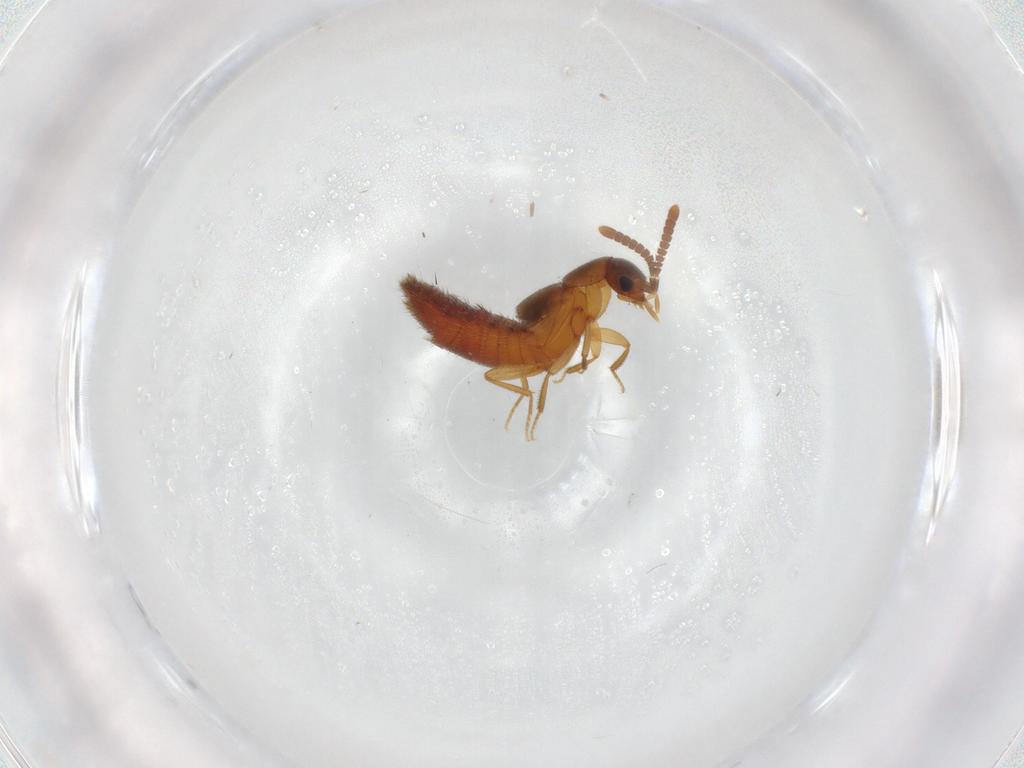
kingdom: Animalia
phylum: Arthropoda
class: Insecta
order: Coleoptera
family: Staphylinidae
